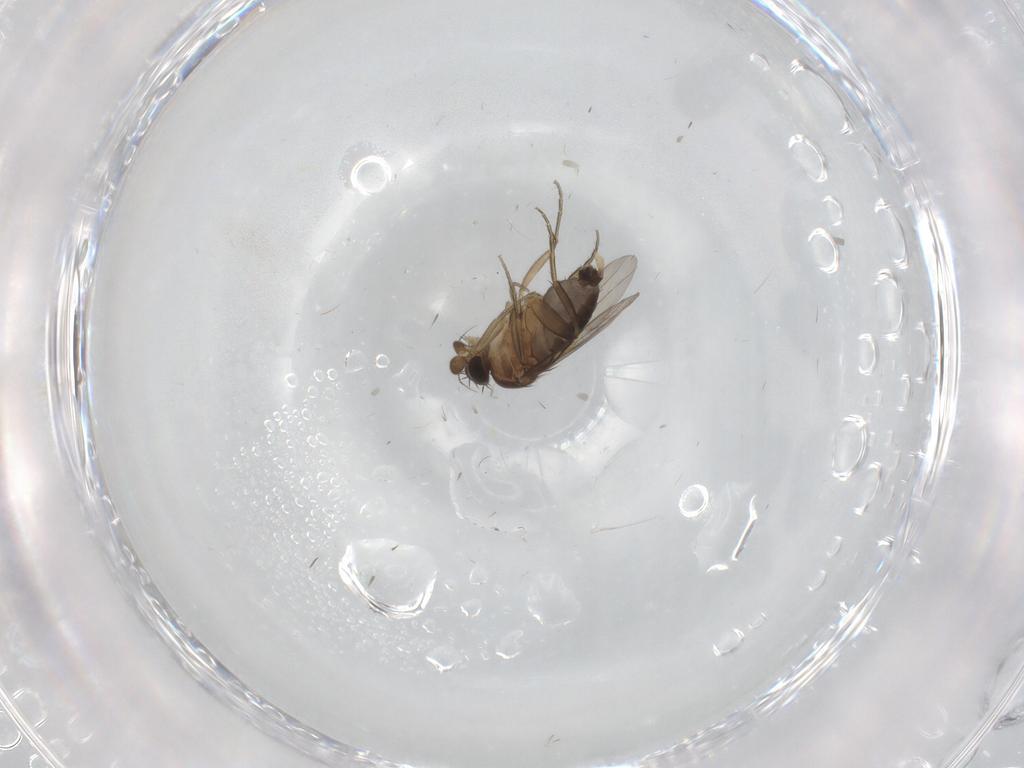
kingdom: Animalia
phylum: Arthropoda
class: Insecta
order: Diptera
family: Phoridae
